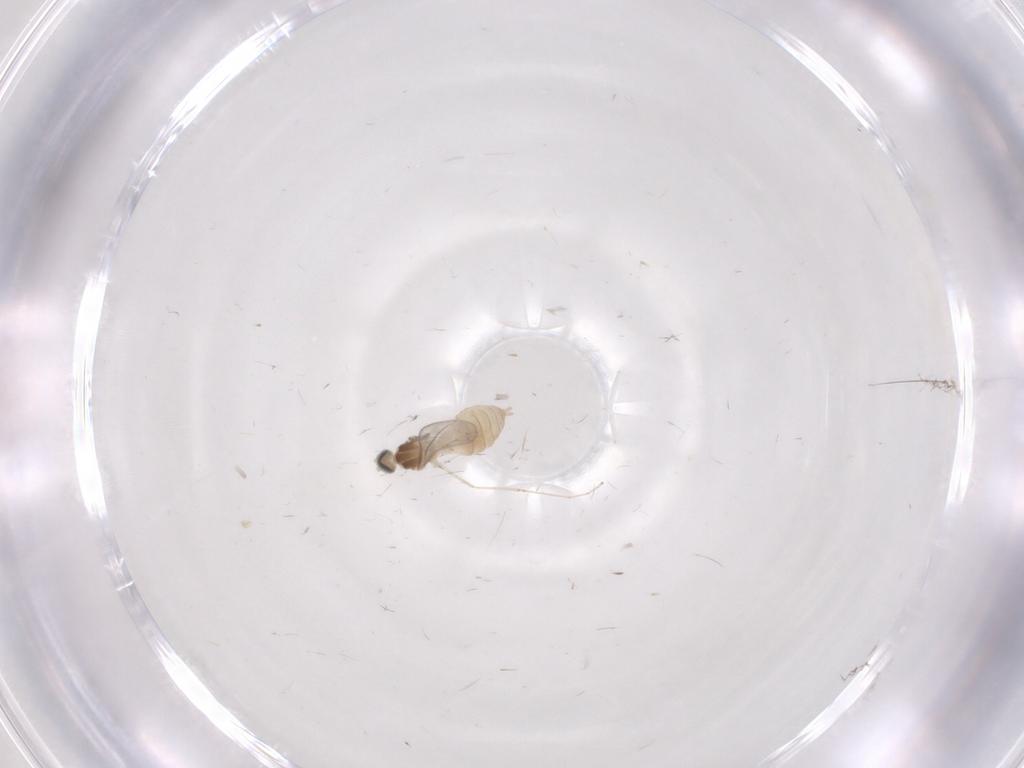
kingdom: Animalia
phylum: Arthropoda
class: Insecta
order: Diptera
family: Cecidomyiidae
